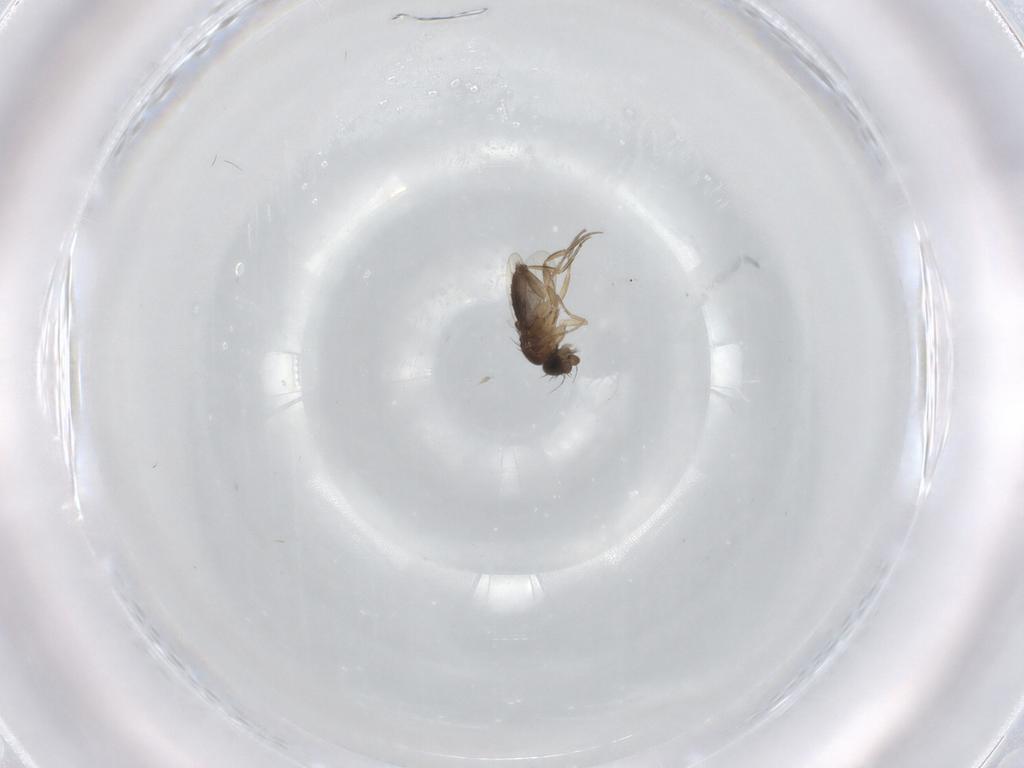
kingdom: Animalia
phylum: Arthropoda
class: Insecta
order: Diptera
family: Phoridae
